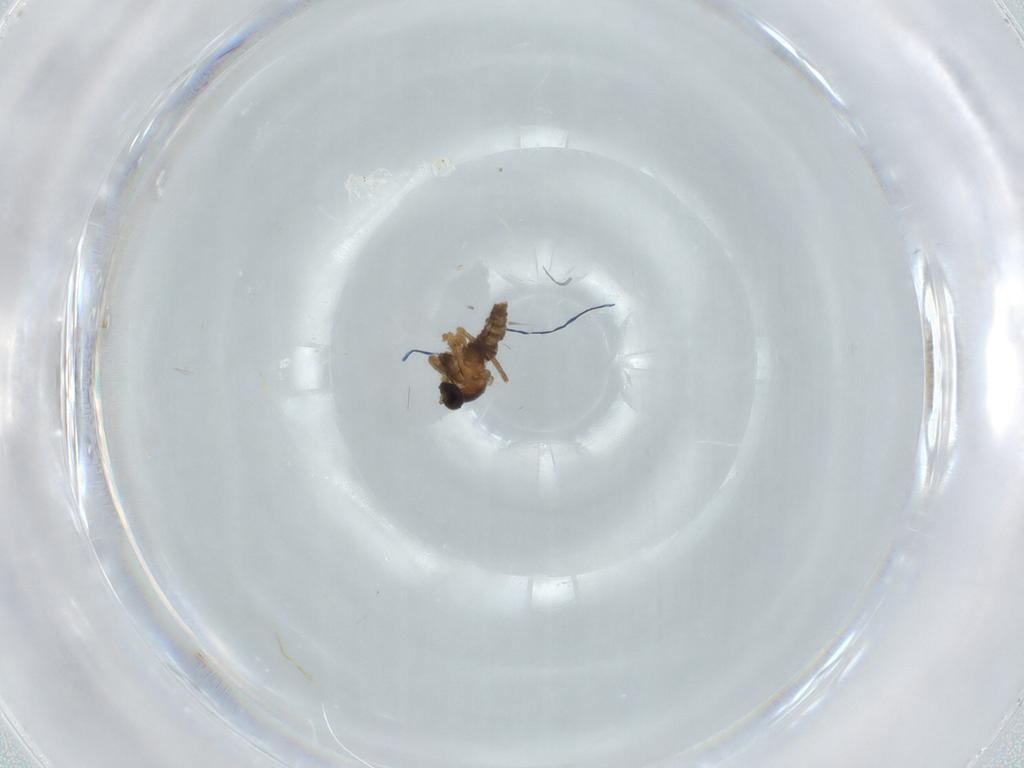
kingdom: Animalia
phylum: Arthropoda
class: Insecta
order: Diptera
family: Cecidomyiidae
